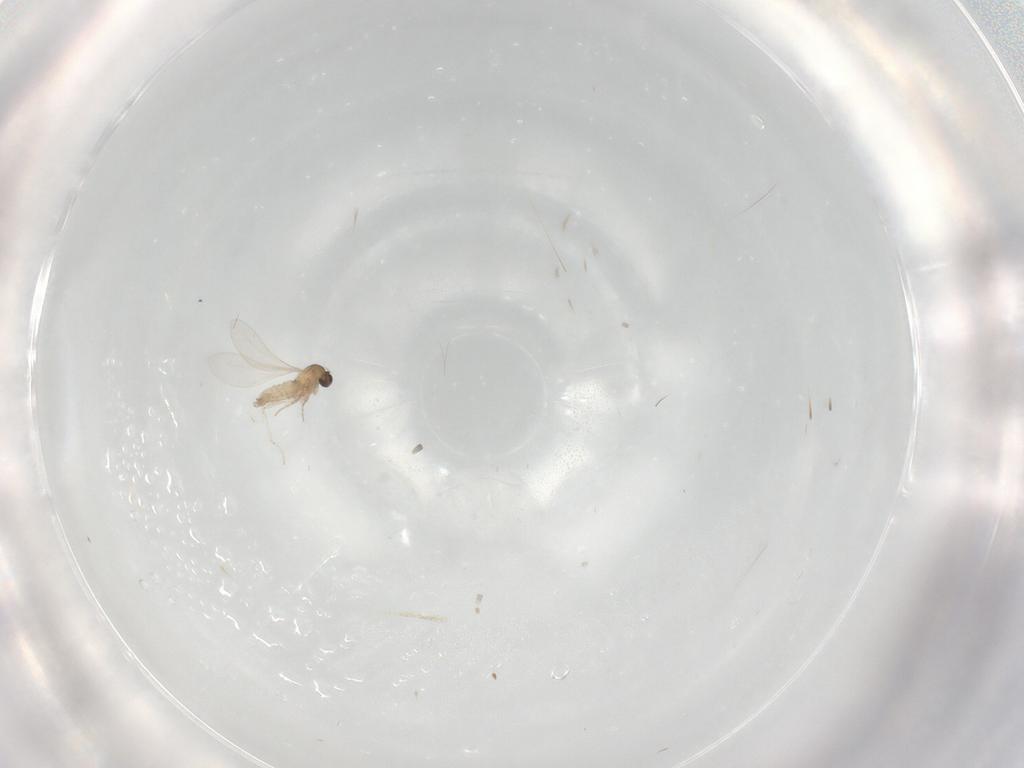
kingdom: Animalia
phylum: Arthropoda
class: Insecta
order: Diptera
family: Cecidomyiidae
